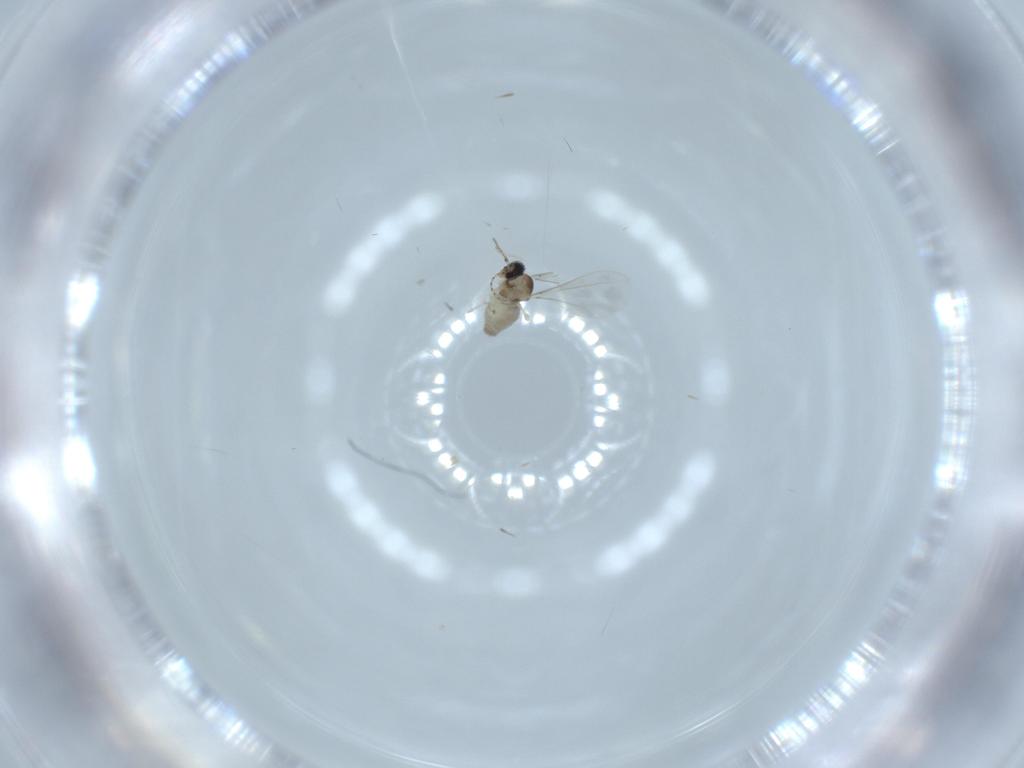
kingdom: Animalia
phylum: Arthropoda
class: Insecta
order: Diptera
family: Cecidomyiidae
